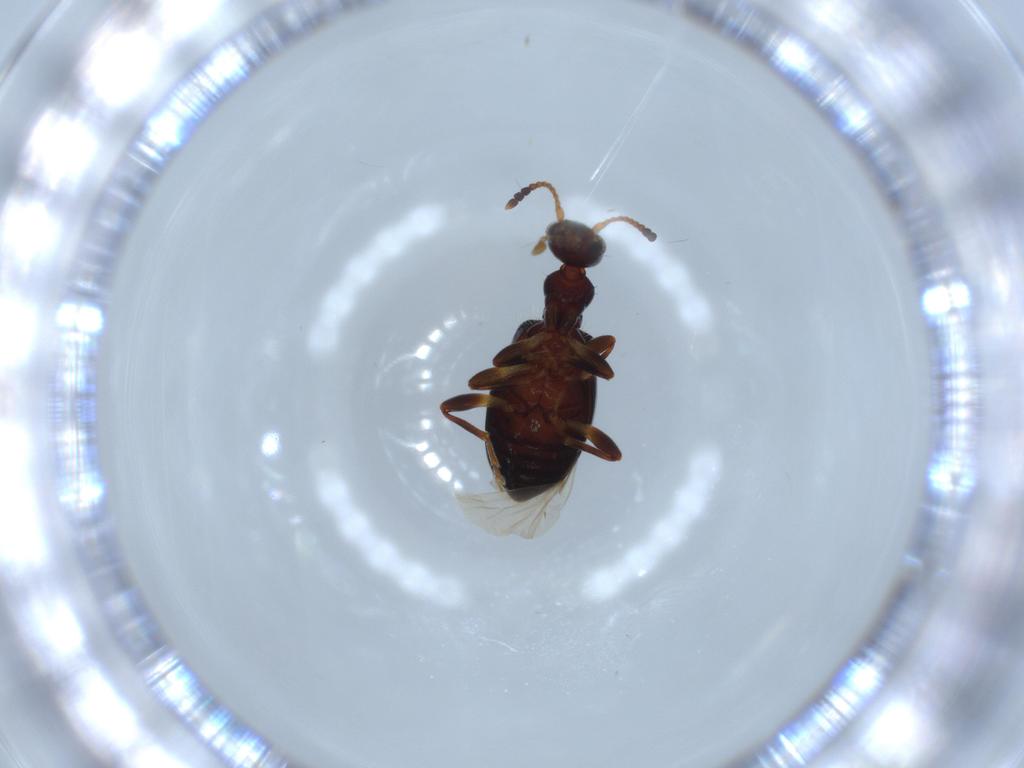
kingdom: Animalia
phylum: Arthropoda
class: Insecta
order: Coleoptera
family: Anthicidae
